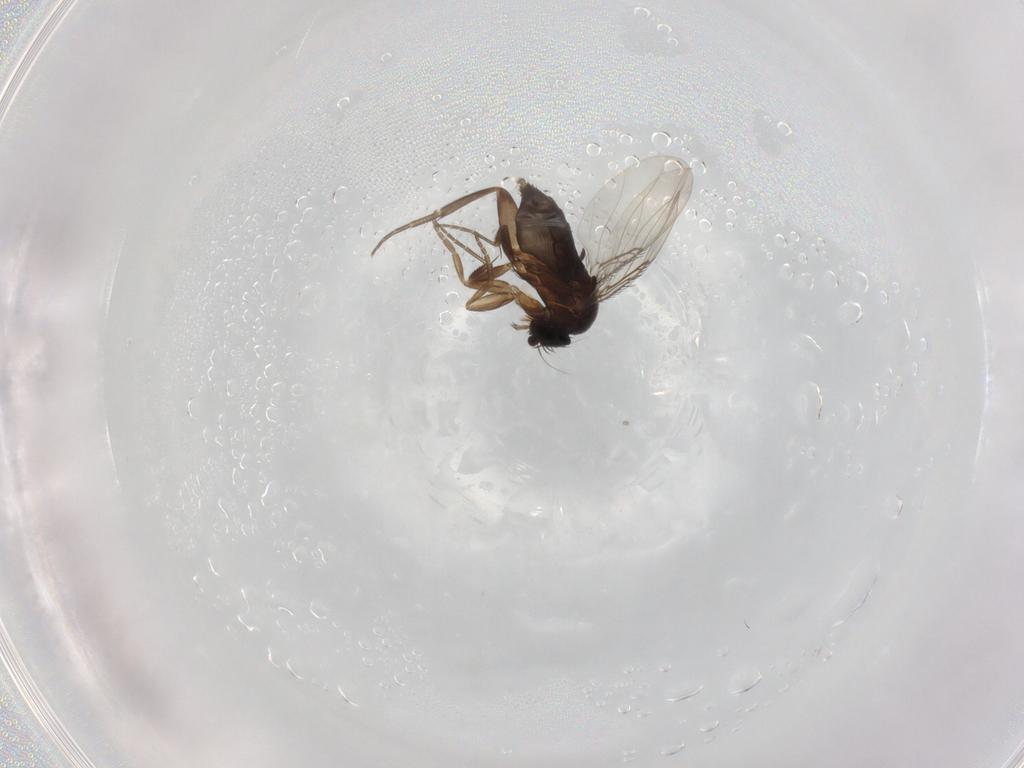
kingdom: Animalia
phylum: Arthropoda
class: Insecta
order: Diptera
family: Phoridae
